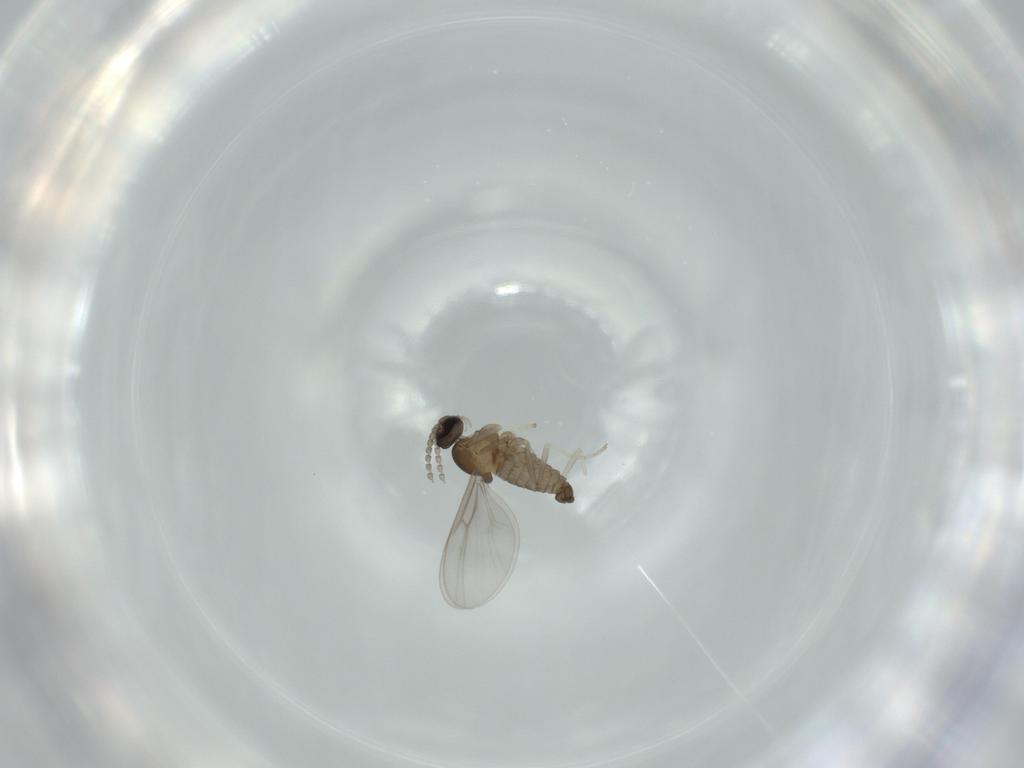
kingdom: Animalia
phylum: Arthropoda
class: Insecta
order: Diptera
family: Cecidomyiidae
